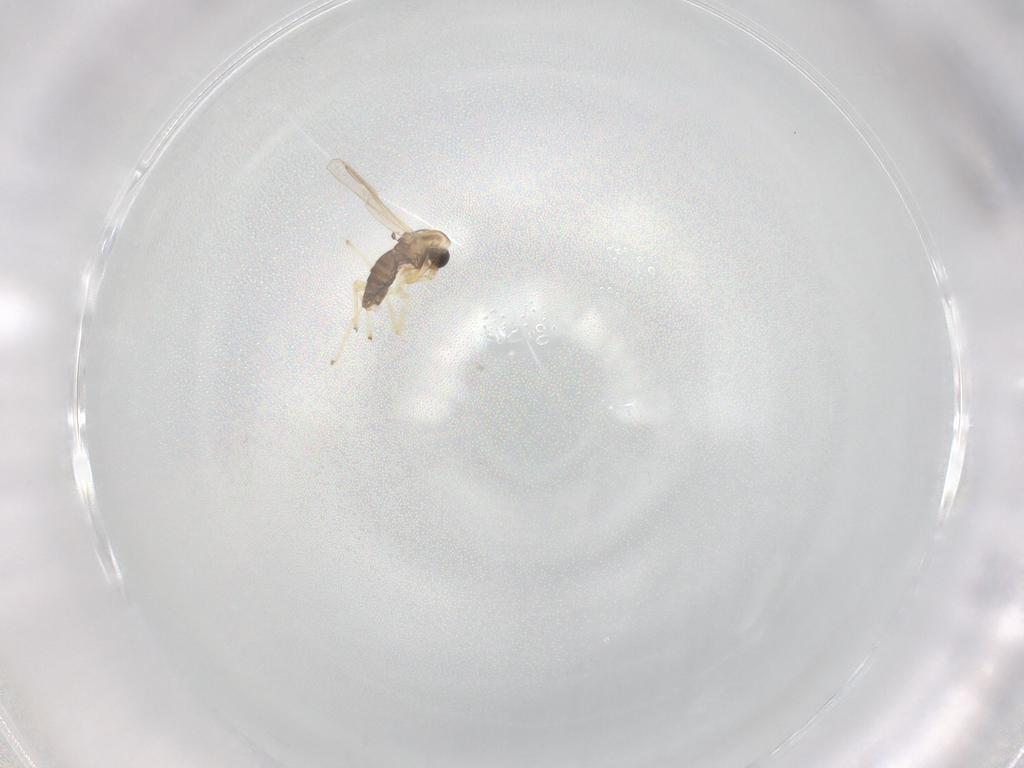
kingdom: Animalia
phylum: Arthropoda
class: Insecta
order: Diptera
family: Chironomidae
